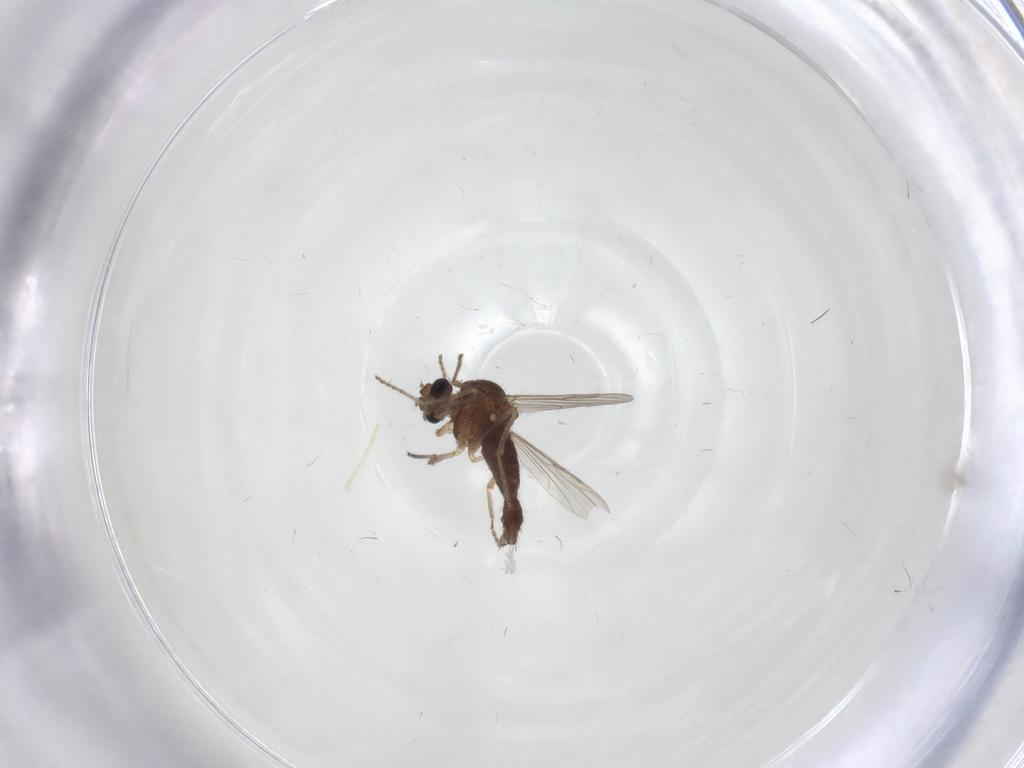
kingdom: Animalia
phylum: Arthropoda
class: Insecta
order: Diptera
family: Ceratopogonidae
